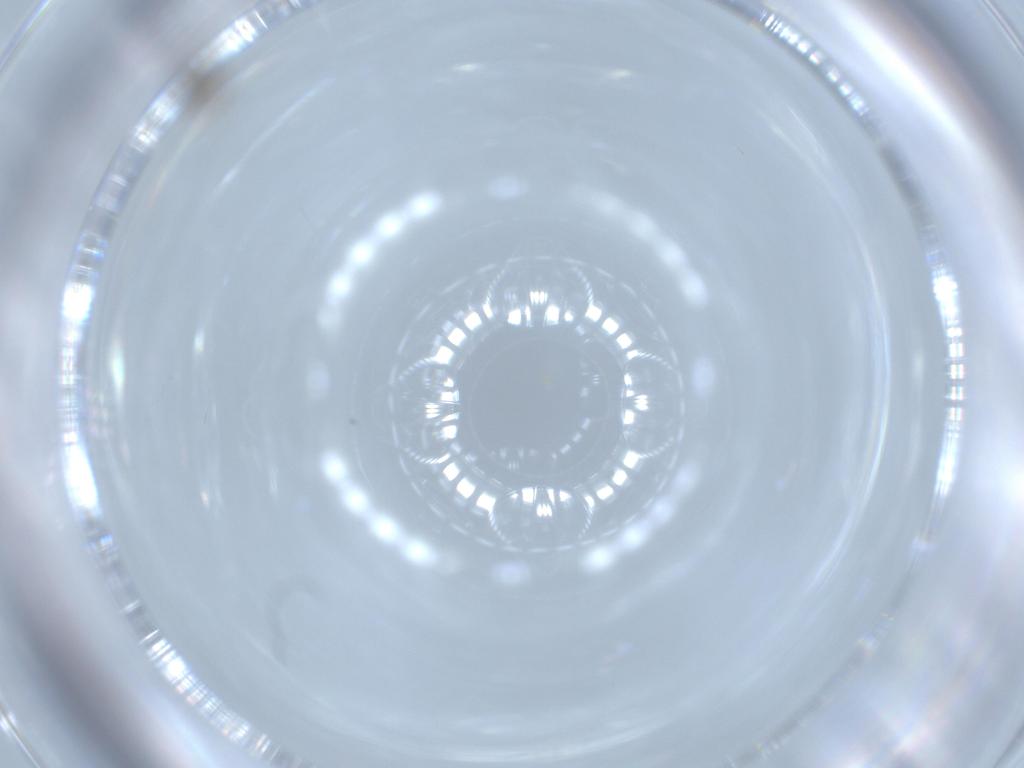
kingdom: Animalia
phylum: Arthropoda
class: Insecta
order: Diptera
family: Cecidomyiidae
